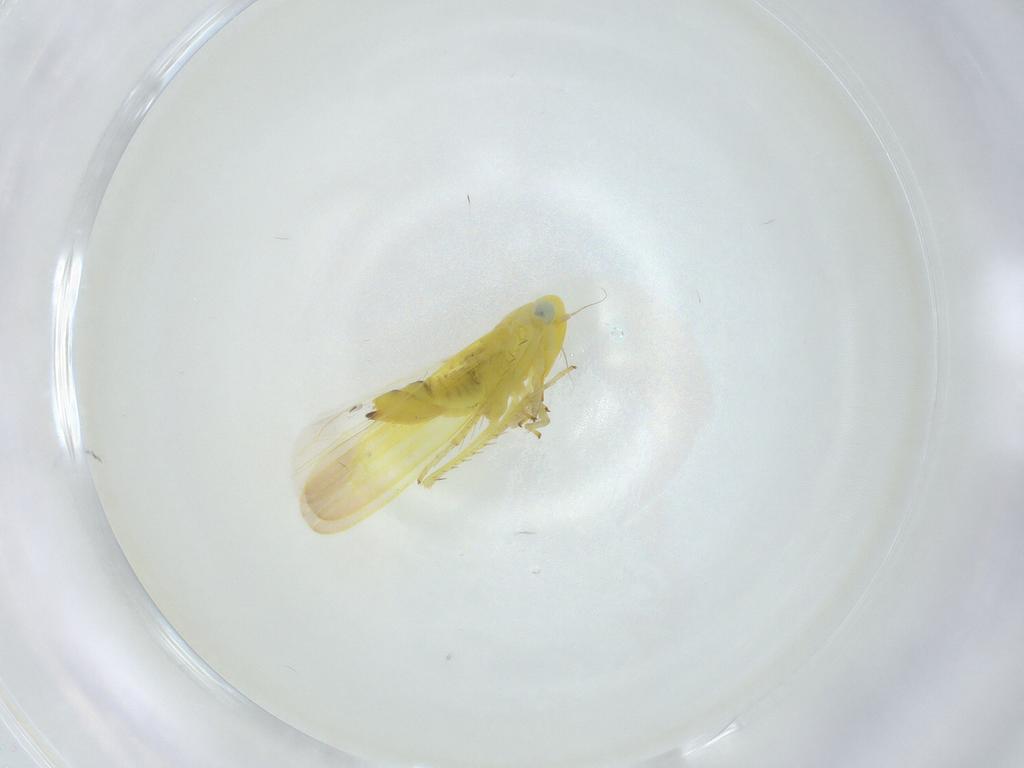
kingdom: Animalia
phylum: Arthropoda
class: Insecta
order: Hemiptera
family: Cicadellidae
